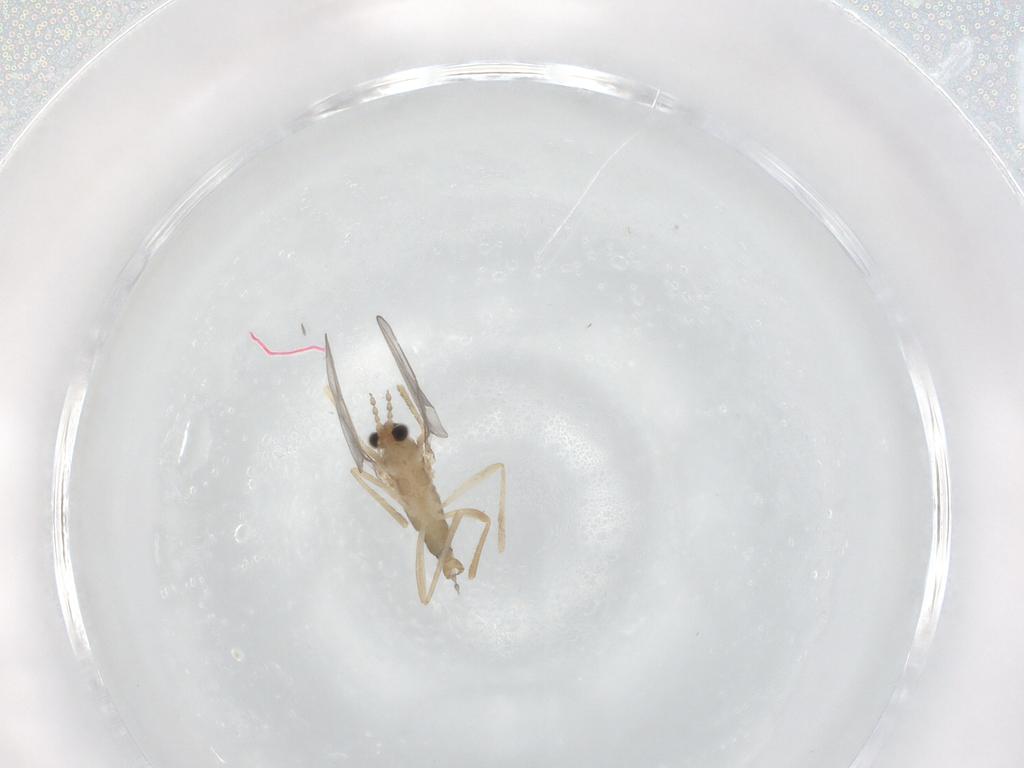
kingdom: Animalia
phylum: Arthropoda
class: Insecta
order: Diptera
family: Cecidomyiidae
